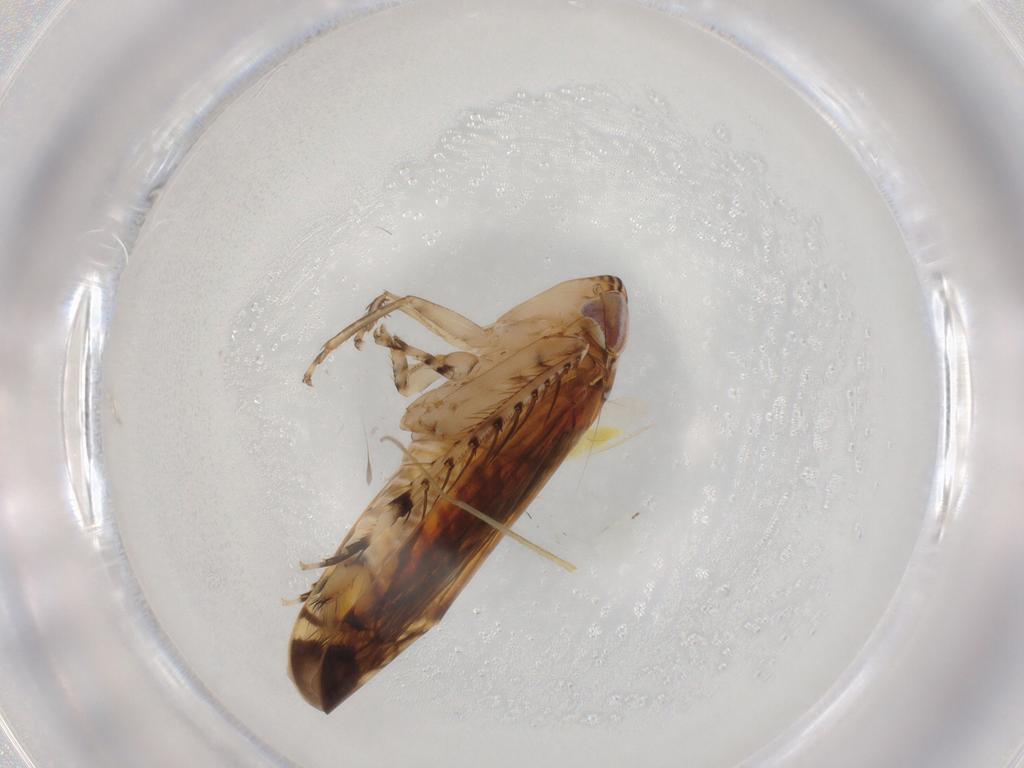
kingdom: Animalia
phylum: Arthropoda
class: Insecta
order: Hemiptera
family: Cicadellidae
